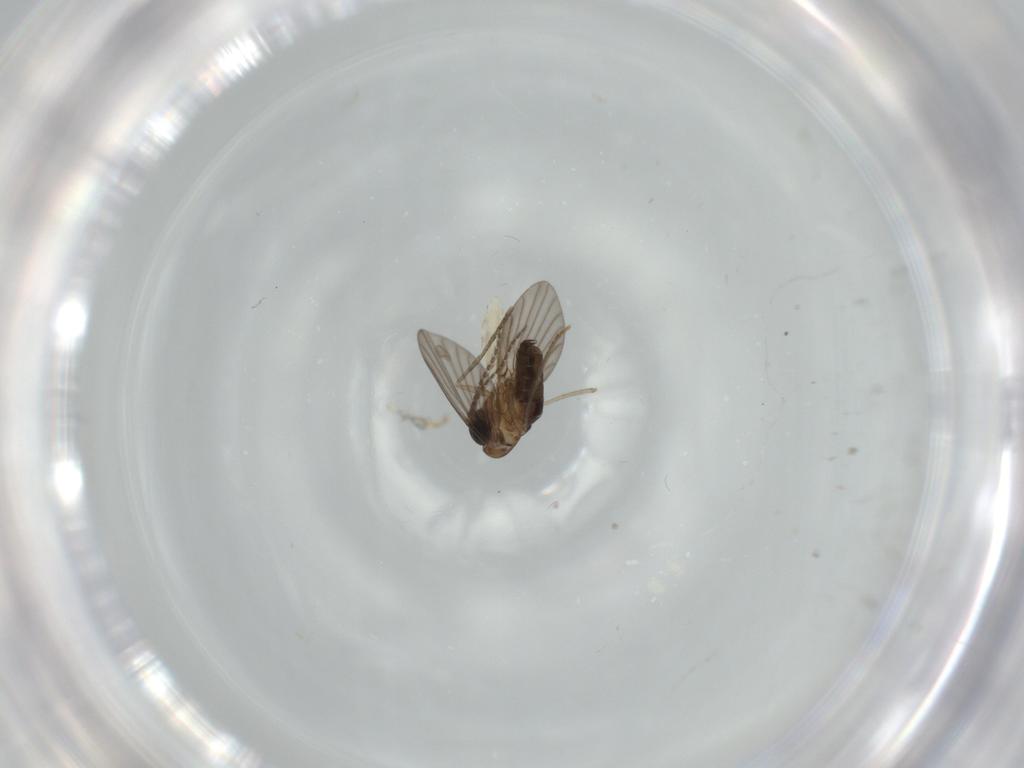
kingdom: Animalia
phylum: Arthropoda
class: Insecta
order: Diptera
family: Psychodidae
